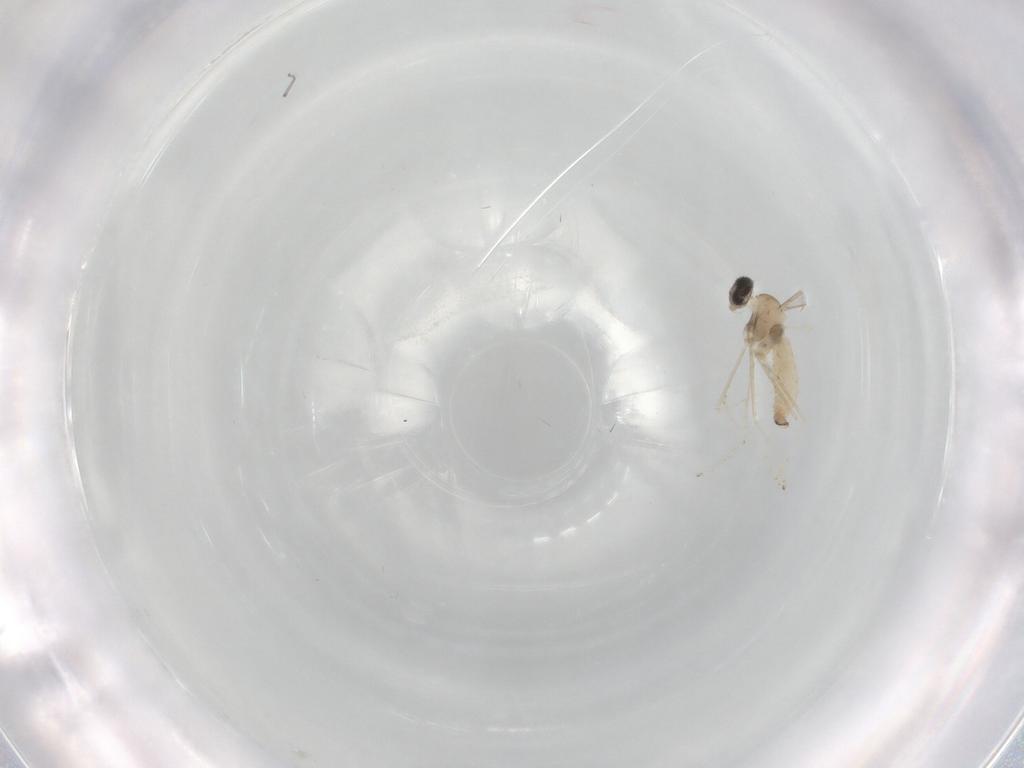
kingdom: Animalia
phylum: Arthropoda
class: Insecta
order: Diptera
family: Cecidomyiidae
